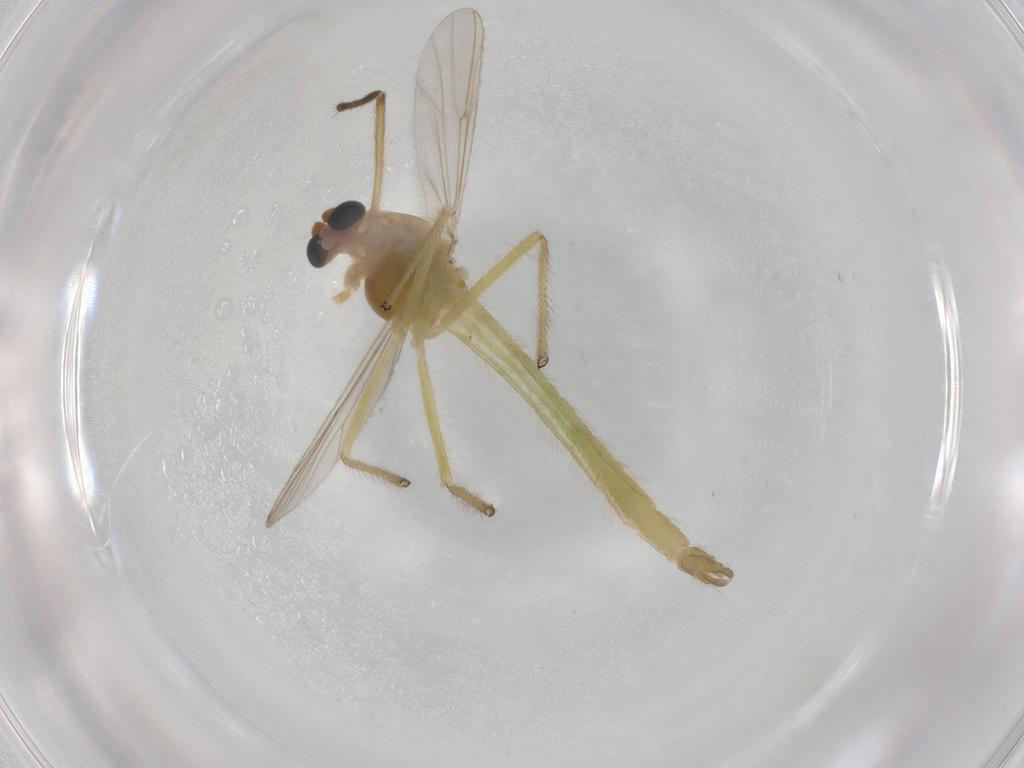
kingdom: Animalia
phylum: Arthropoda
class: Insecta
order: Diptera
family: Chironomidae
